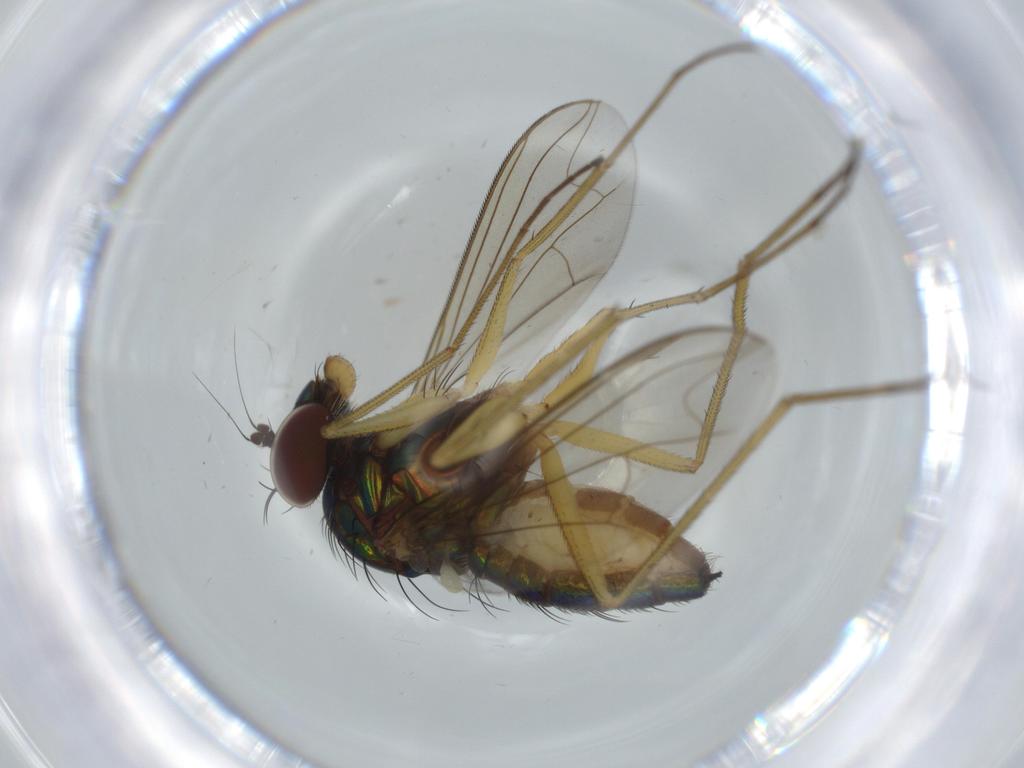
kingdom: Animalia
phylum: Arthropoda
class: Insecta
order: Diptera
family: Dolichopodidae
